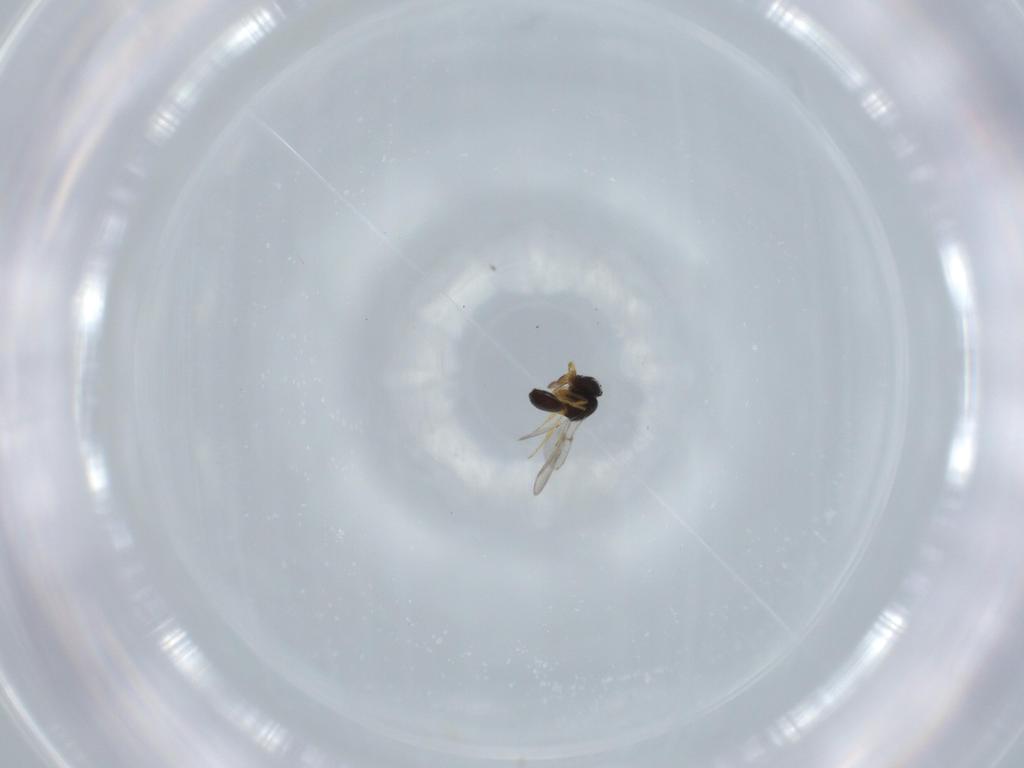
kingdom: Animalia
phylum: Arthropoda
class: Insecta
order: Hymenoptera
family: Scelionidae
